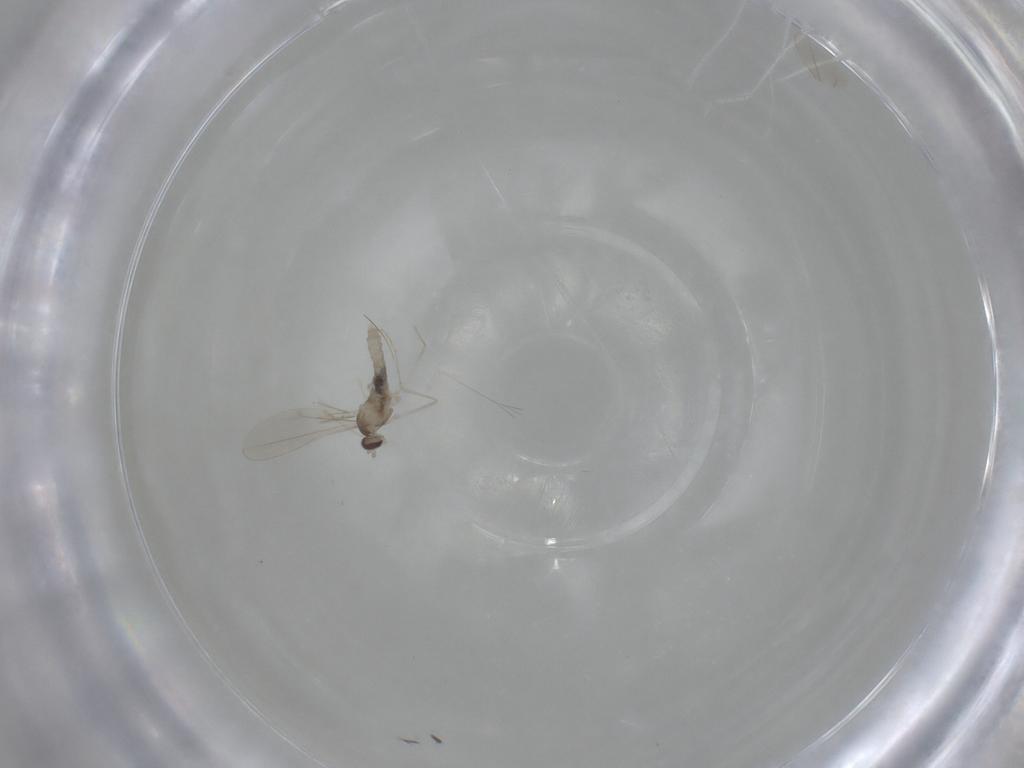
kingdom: Animalia
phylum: Arthropoda
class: Insecta
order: Diptera
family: Cecidomyiidae
